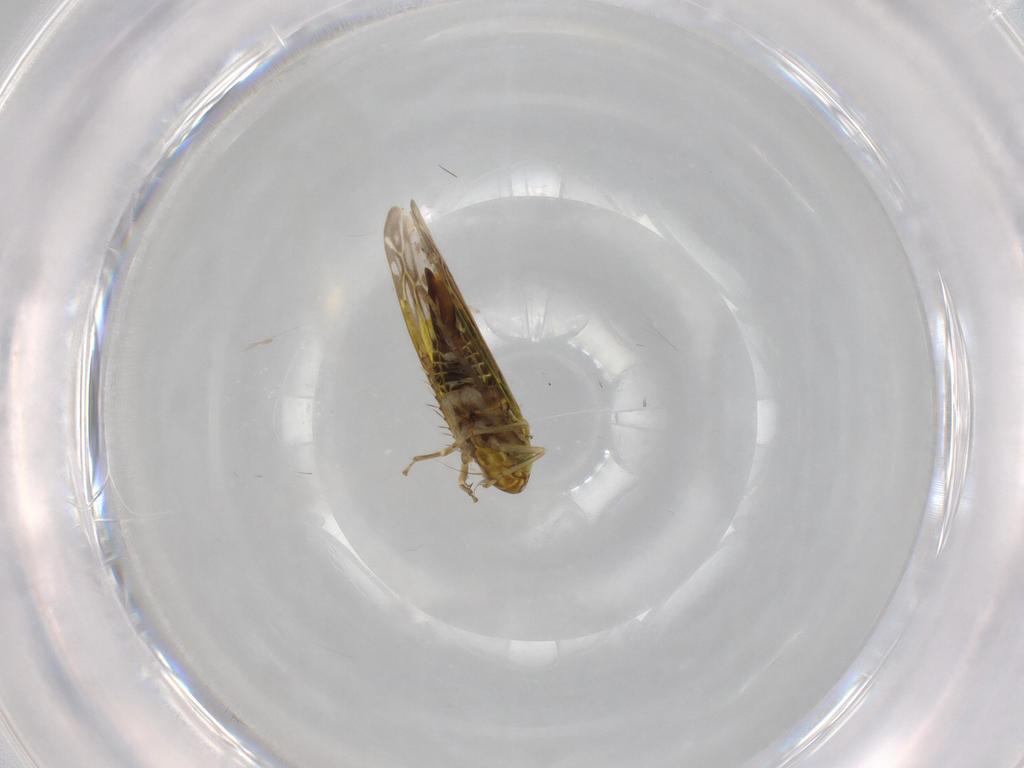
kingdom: Animalia
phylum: Arthropoda
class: Insecta
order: Hemiptera
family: Cicadellidae
